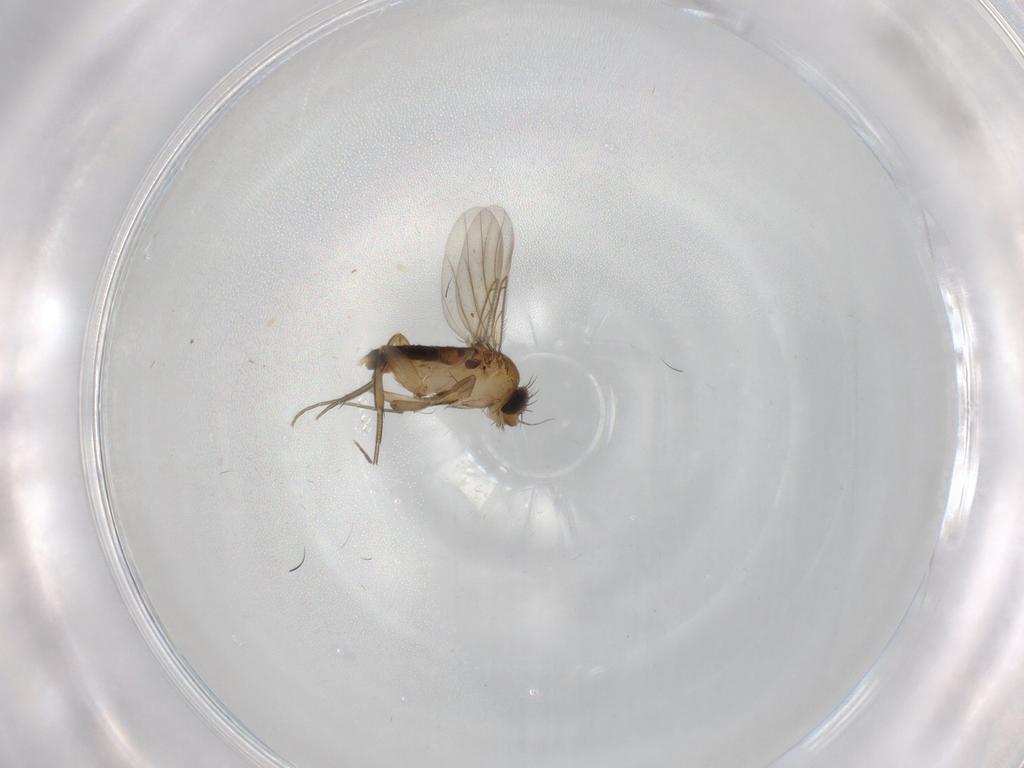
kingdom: Animalia
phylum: Arthropoda
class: Insecta
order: Diptera
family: Phoridae
